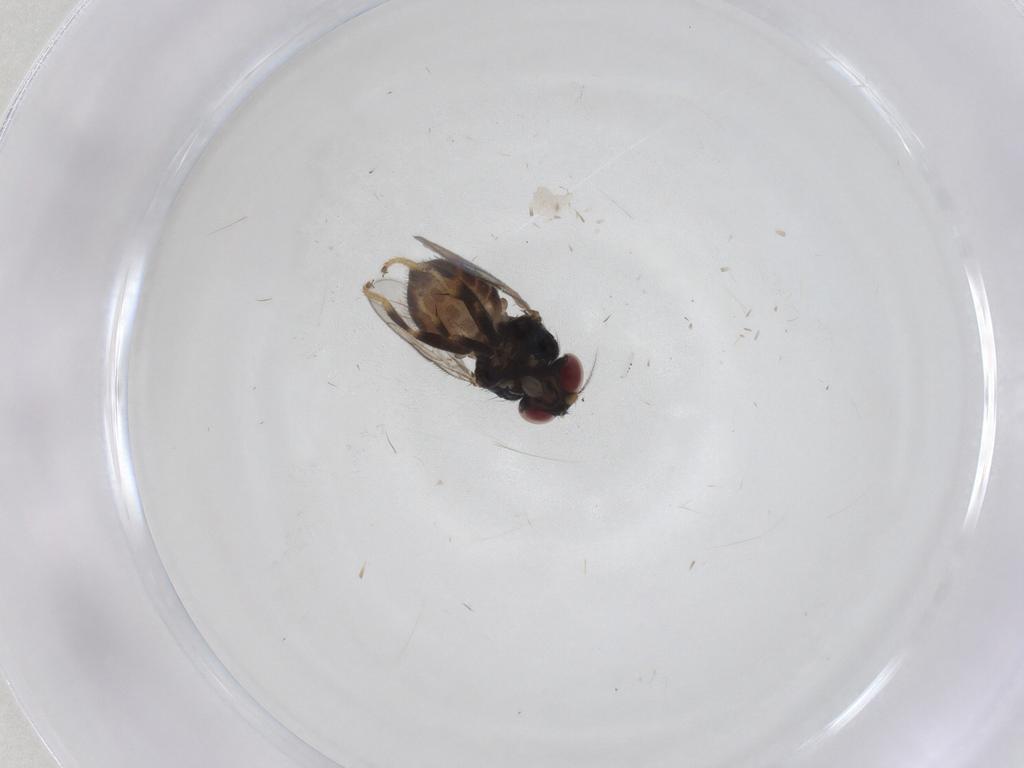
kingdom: Animalia
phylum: Arthropoda
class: Insecta
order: Diptera
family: Chloropidae
